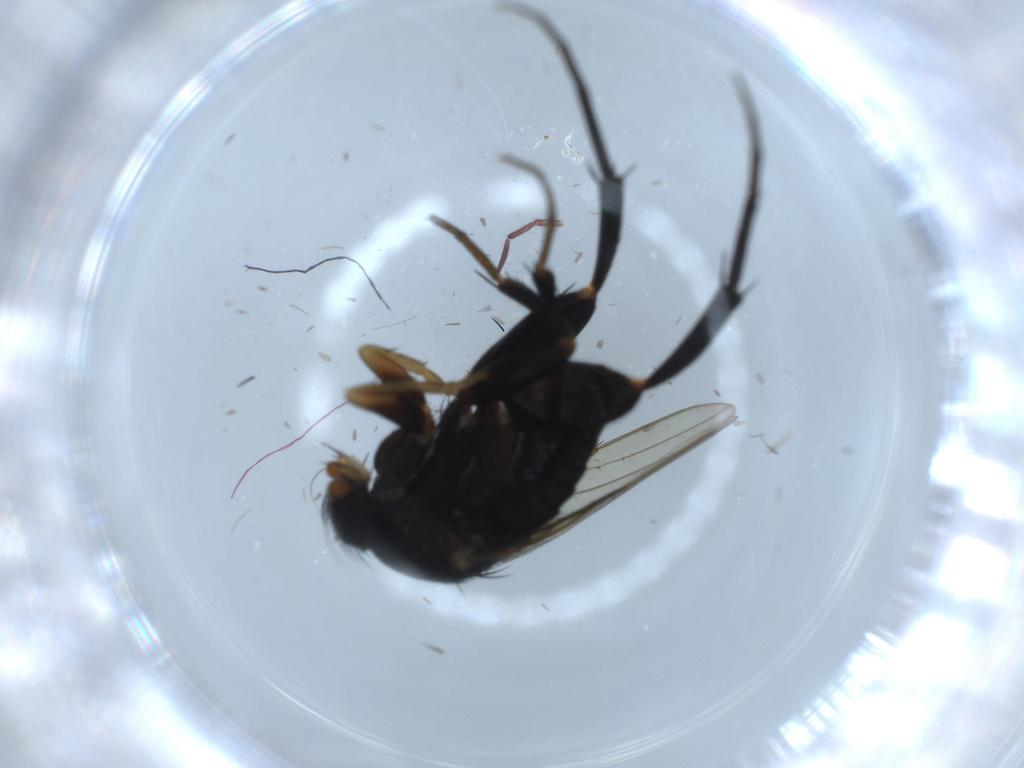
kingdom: Animalia
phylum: Arthropoda
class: Insecta
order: Diptera
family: Phoridae
